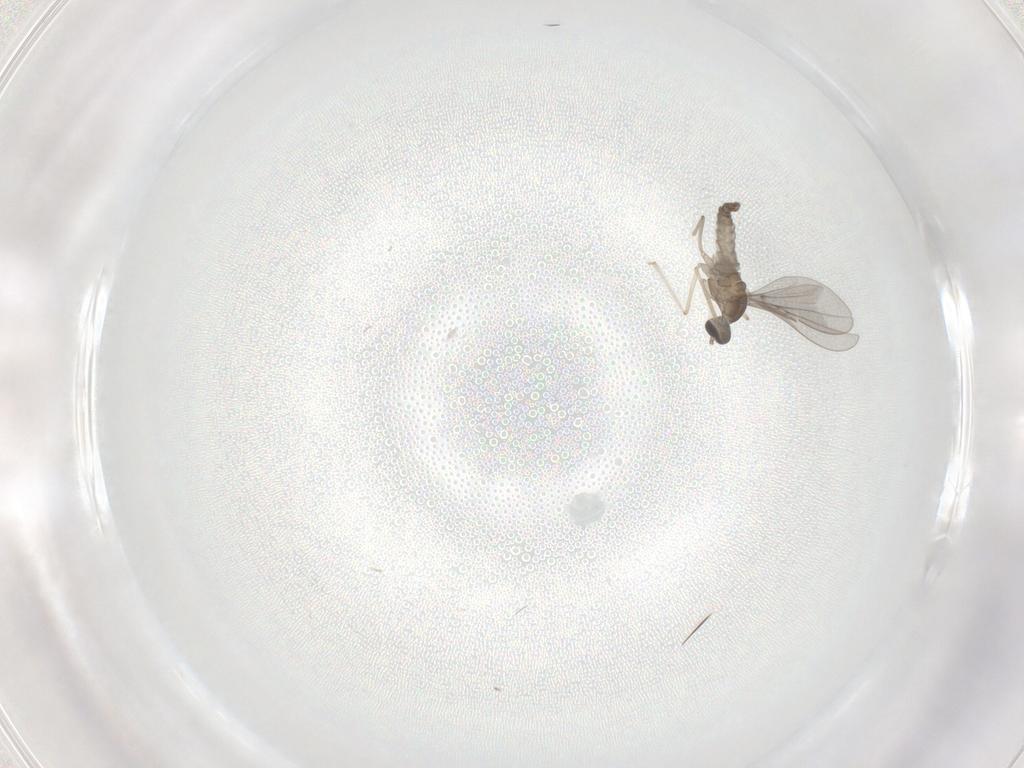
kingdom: Animalia
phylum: Arthropoda
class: Insecta
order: Diptera
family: Cecidomyiidae
